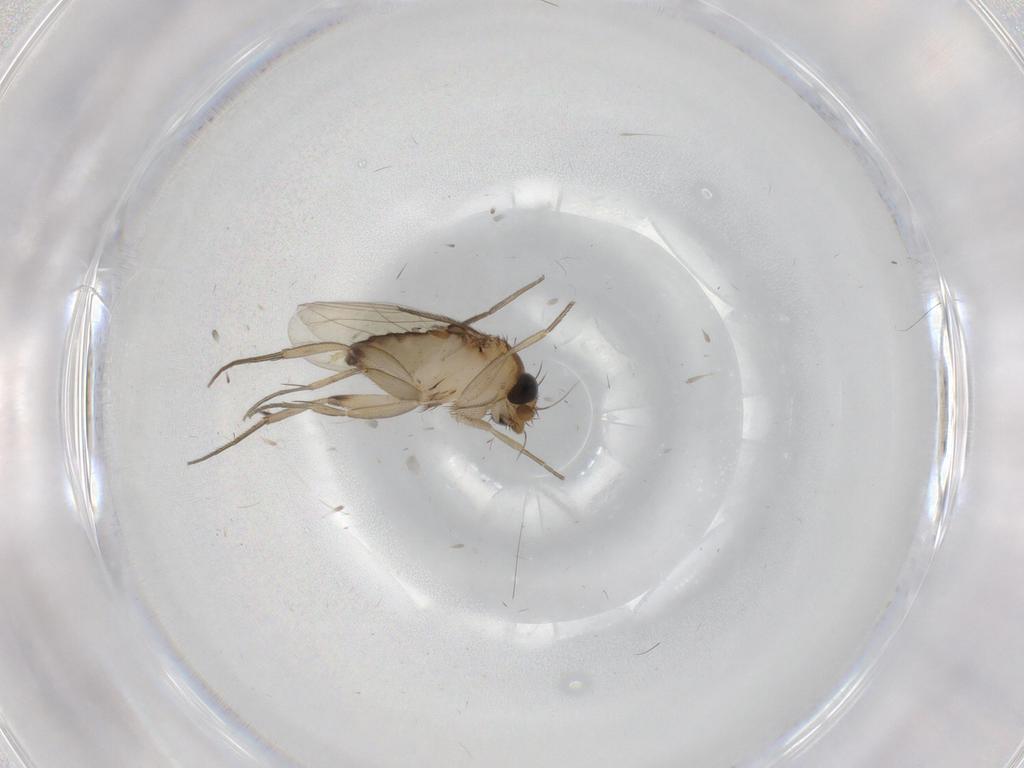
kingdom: Animalia
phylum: Arthropoda
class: Insecta
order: Diptera
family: Phoridae
